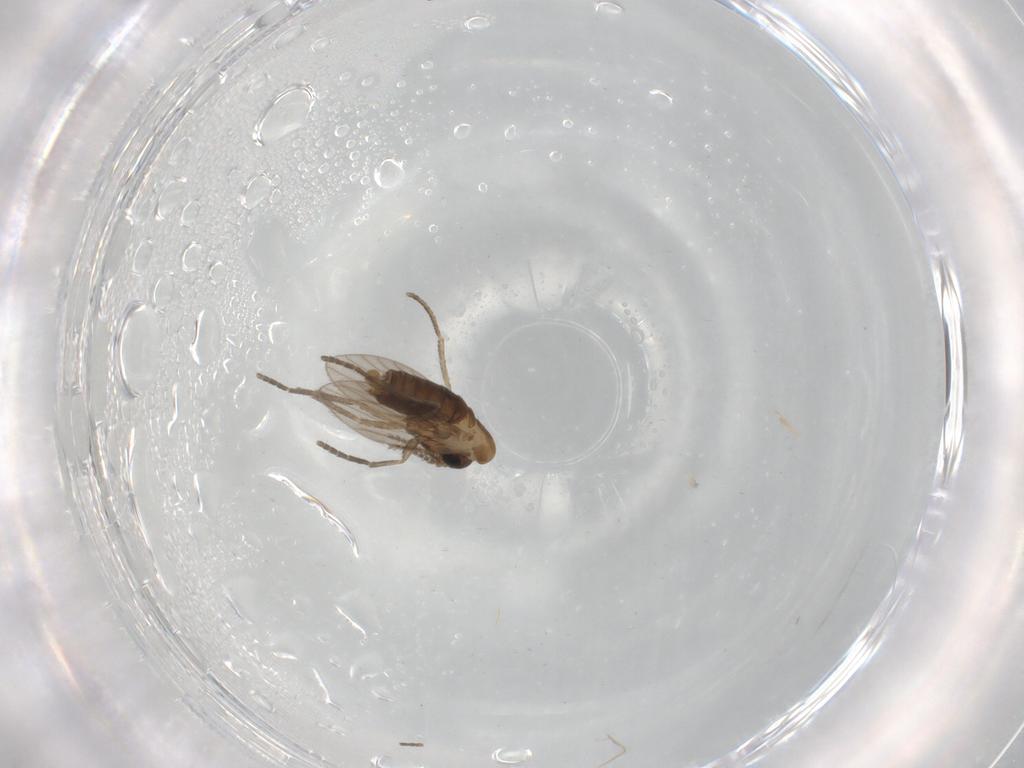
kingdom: Animalia
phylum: Arthropoda
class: Insecta
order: Diptera
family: Psychodidae
